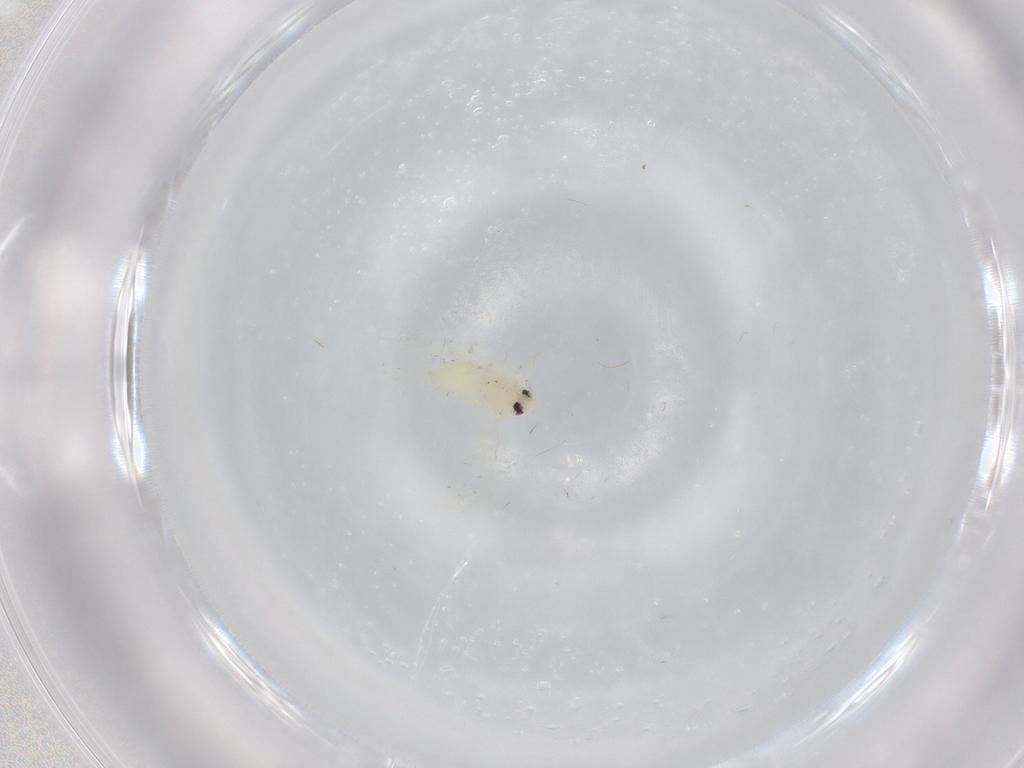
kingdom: Animalia
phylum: Arthropoda
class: Insecta
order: Hemiptera
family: Aleyrodidae
